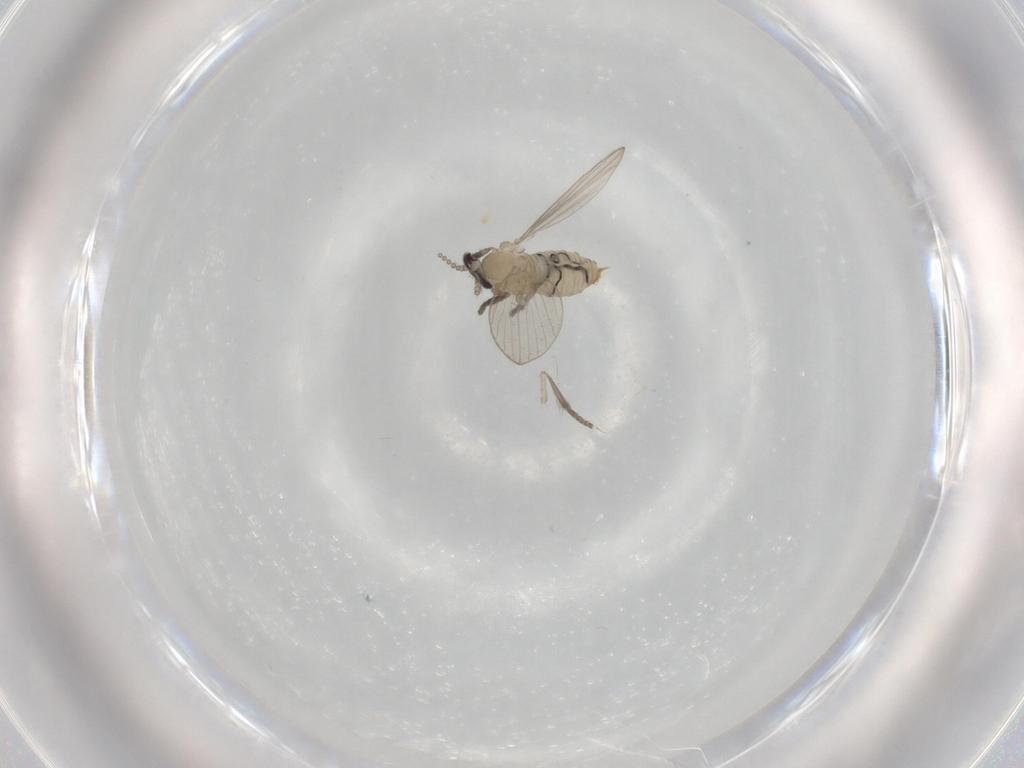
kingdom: Animalia
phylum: Arthropoda
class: Insecta
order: Diptera
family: Psychodidae
